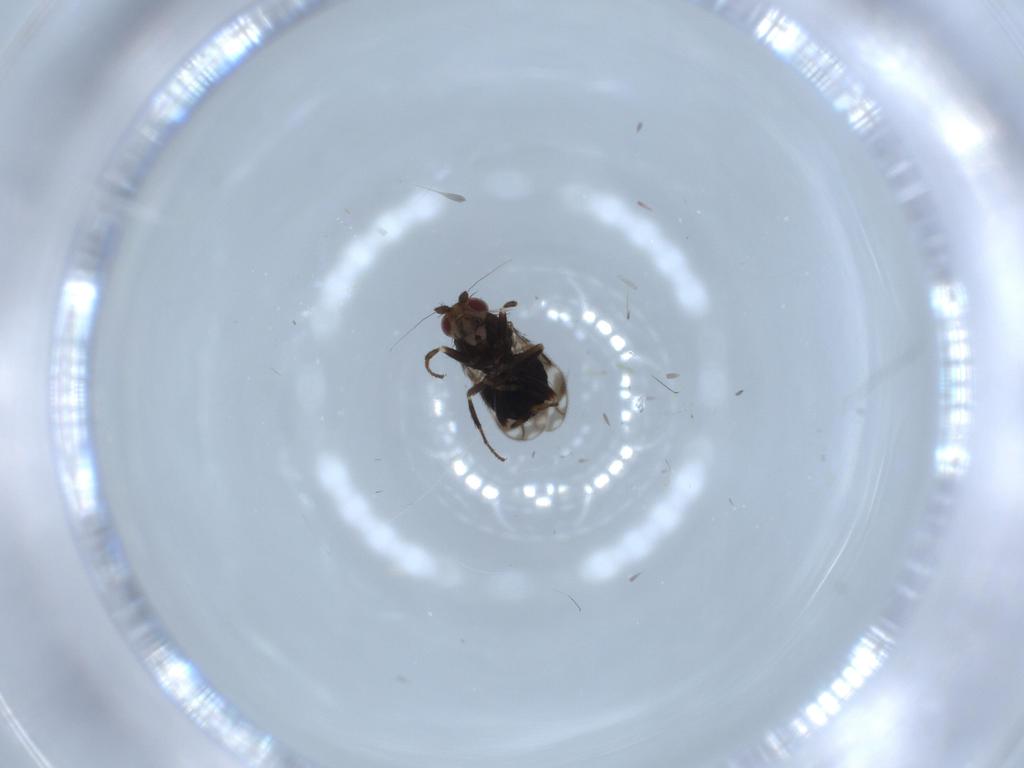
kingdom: Animalia
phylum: Arthropoda
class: Insecta
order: Diptera
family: Sphaeroceridae
